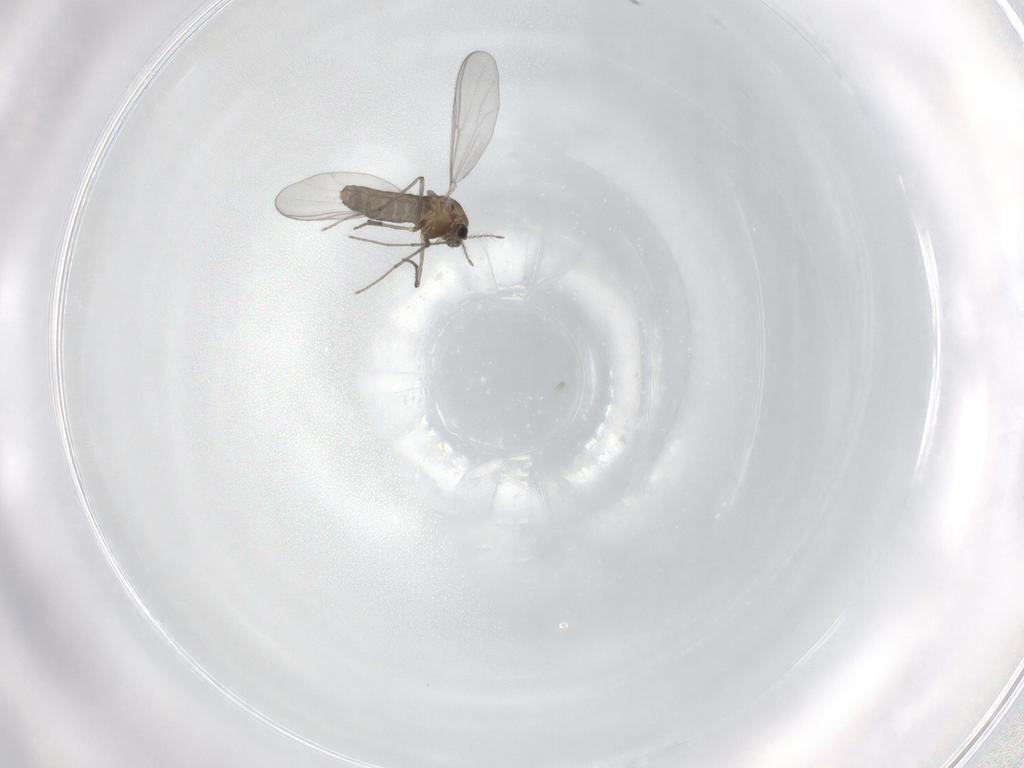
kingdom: Animalia
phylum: Arthropoda
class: Insecta
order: Diptera
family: Chironomidae
